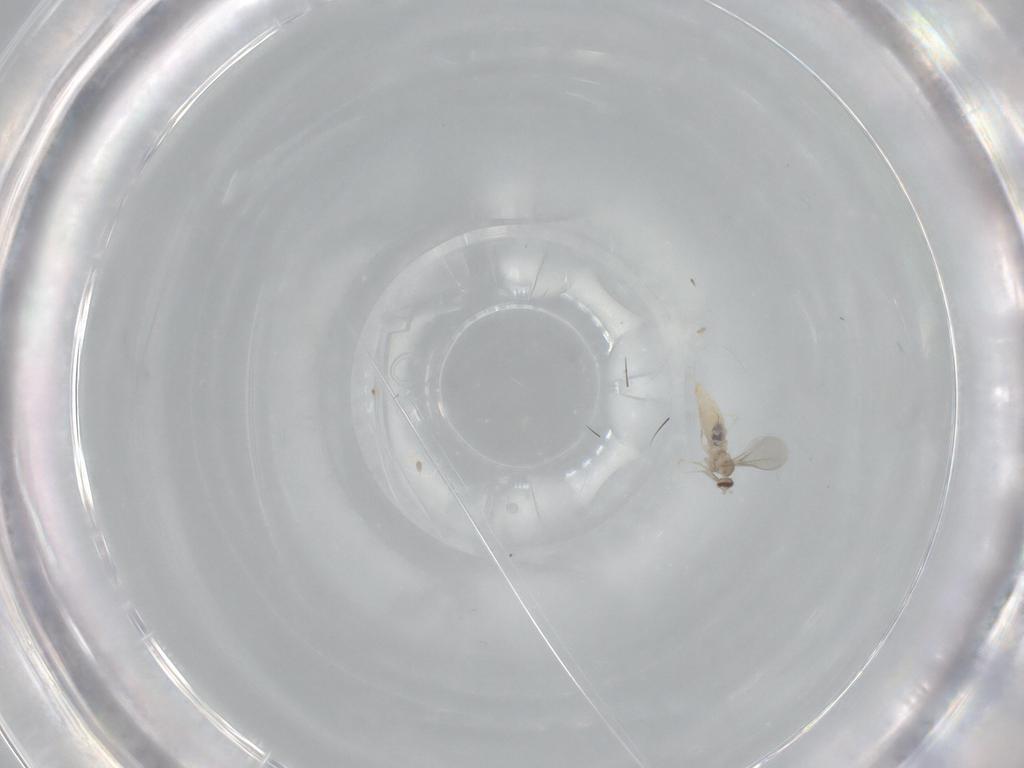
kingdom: Animalia
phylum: Arthropoda
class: Insecta
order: Diptera
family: Cecidomyiidae
